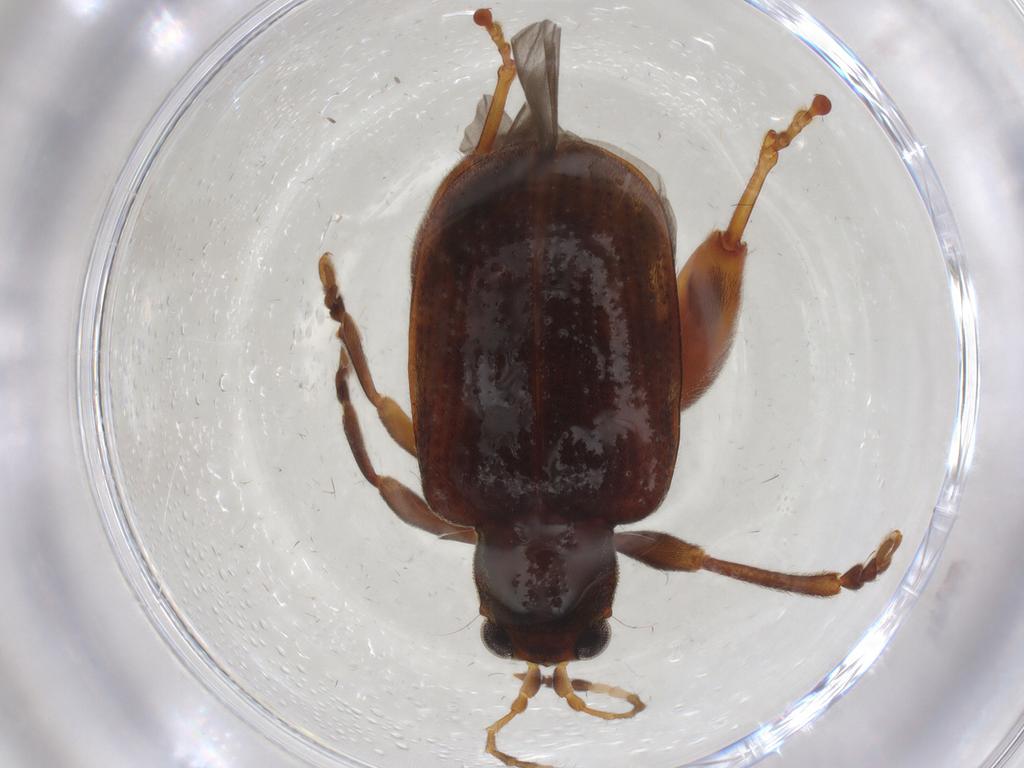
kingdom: Animalia
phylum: Arthropoda
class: Insecta
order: Coleoptera
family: Chrysomelidae
